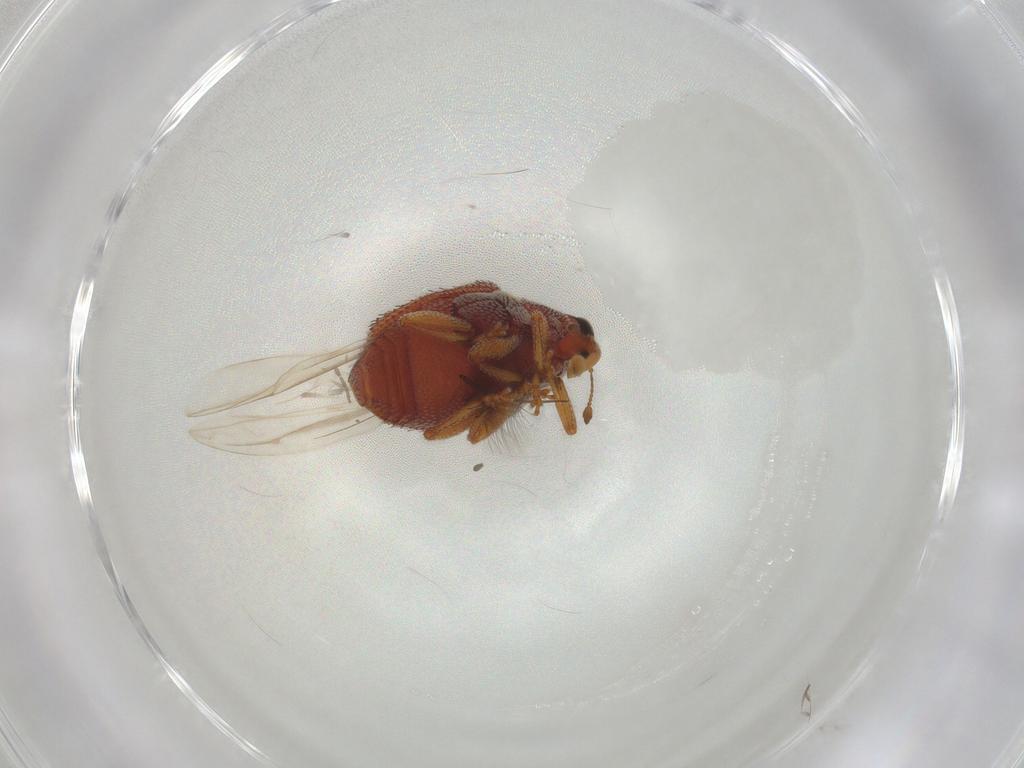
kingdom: Animalia
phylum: Arthropoda
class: Insecta
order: Coleoptera
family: Curculionidae
